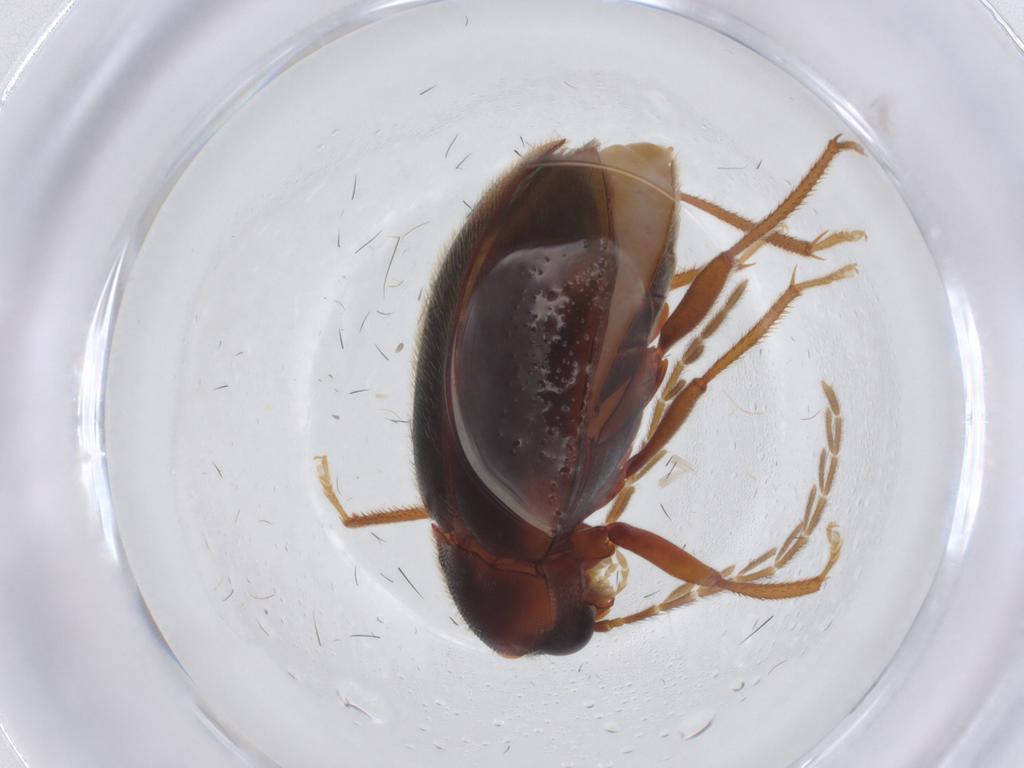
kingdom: Animalia
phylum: Arthropoda
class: Insecta
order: Coleoptera
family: Ptilodactylidae
